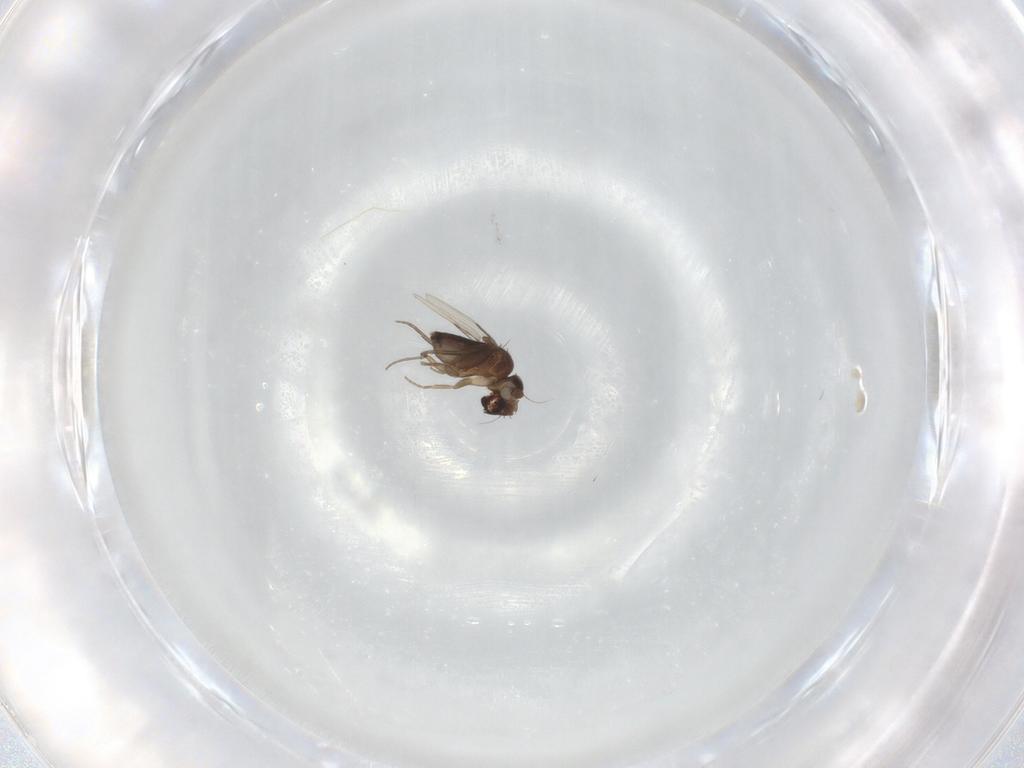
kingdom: Animalia
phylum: Arthropoda
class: Insecta
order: Diptera
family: Phoridae
